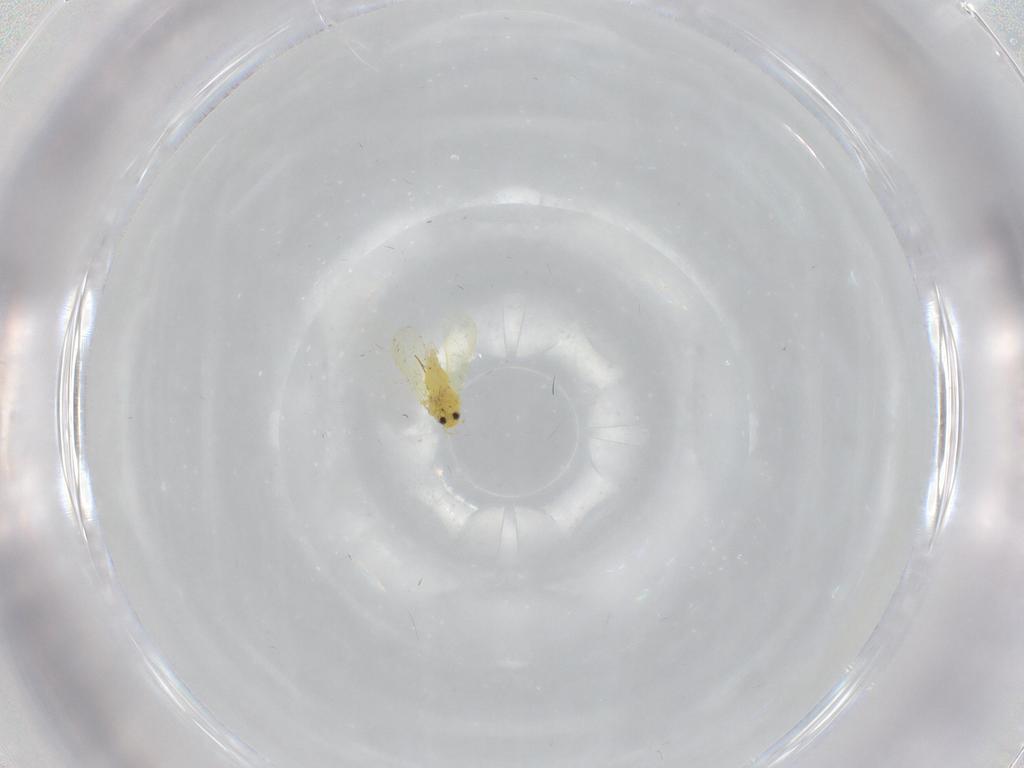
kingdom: Animalia
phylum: Arthropoda
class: Insecta
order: Hemiptera
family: Aleyrodidae
